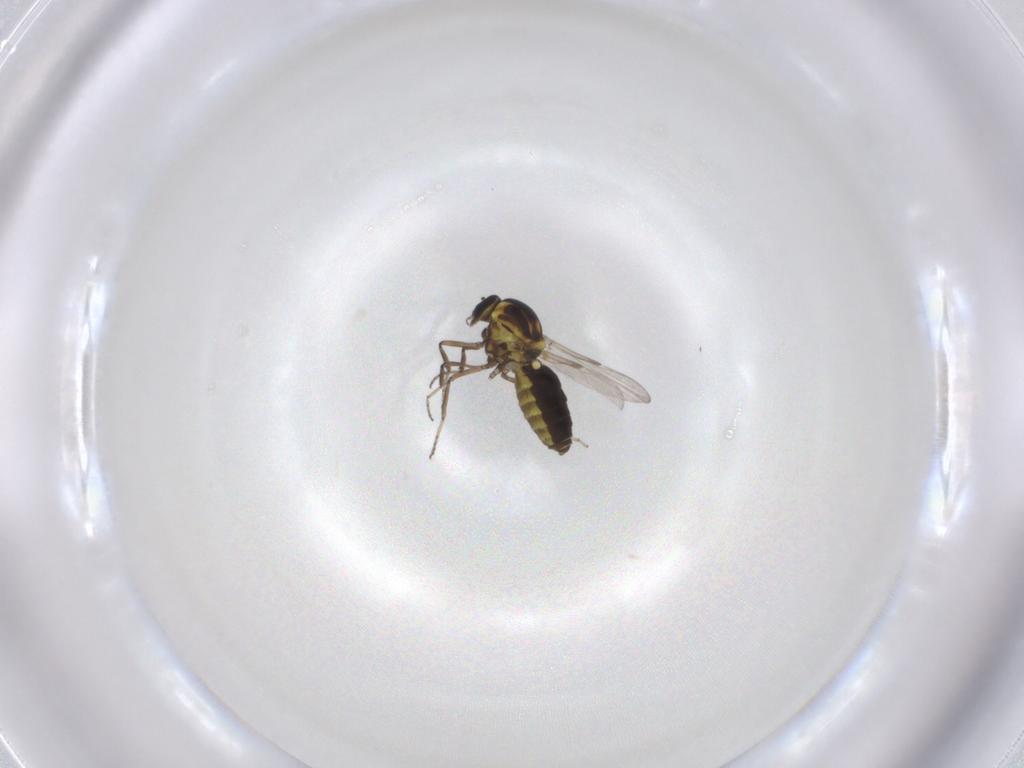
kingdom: Animalia
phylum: Arthropoda
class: Insecta
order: Diptera
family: Ceratopogonidae
